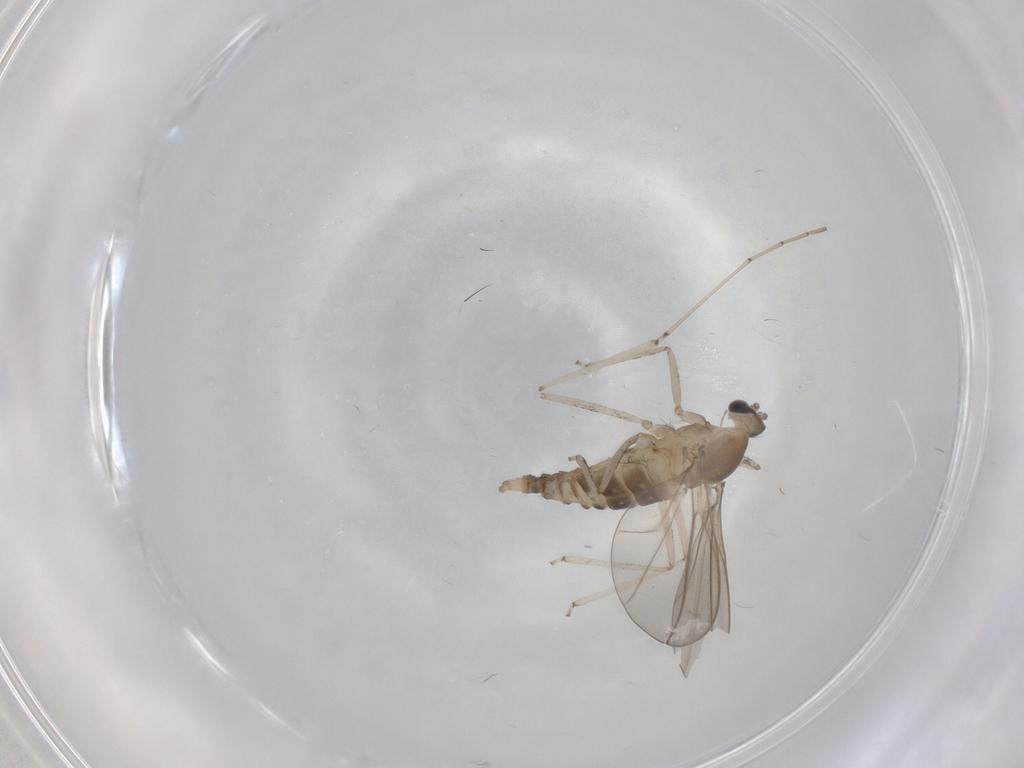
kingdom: Animalia
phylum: Arthropoda
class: Insecta
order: Diptera
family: Cecidomyiidae
